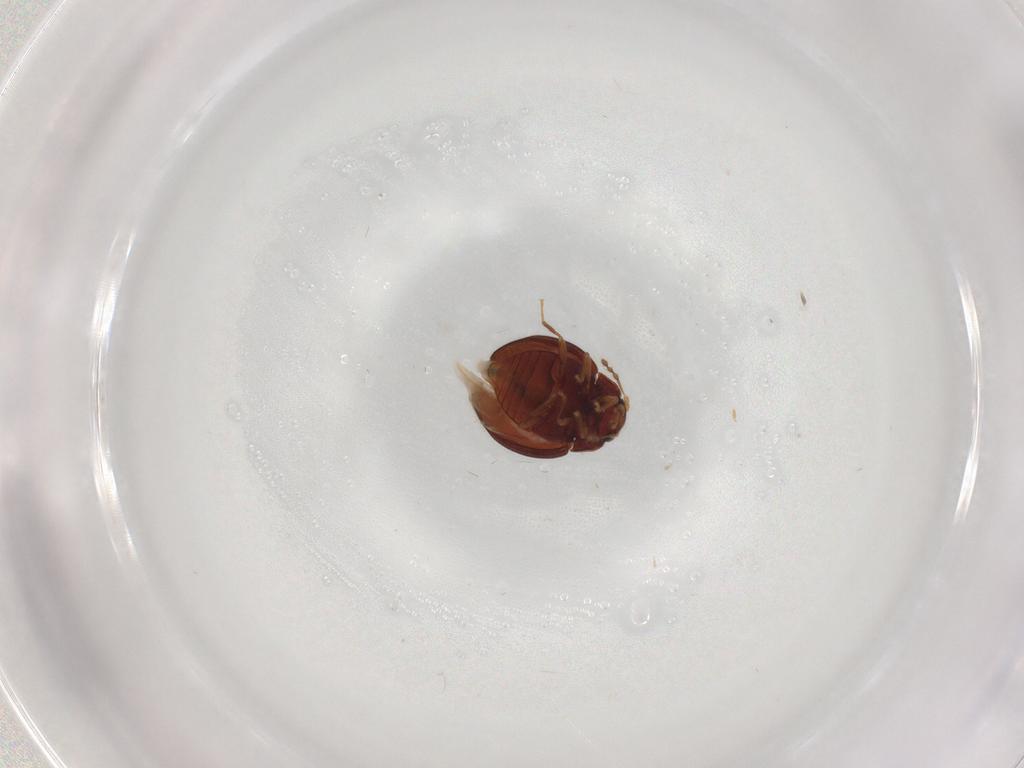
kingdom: Animalia
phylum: Arthropoda
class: Insecta
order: Coleoptera
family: Anamorphidae
